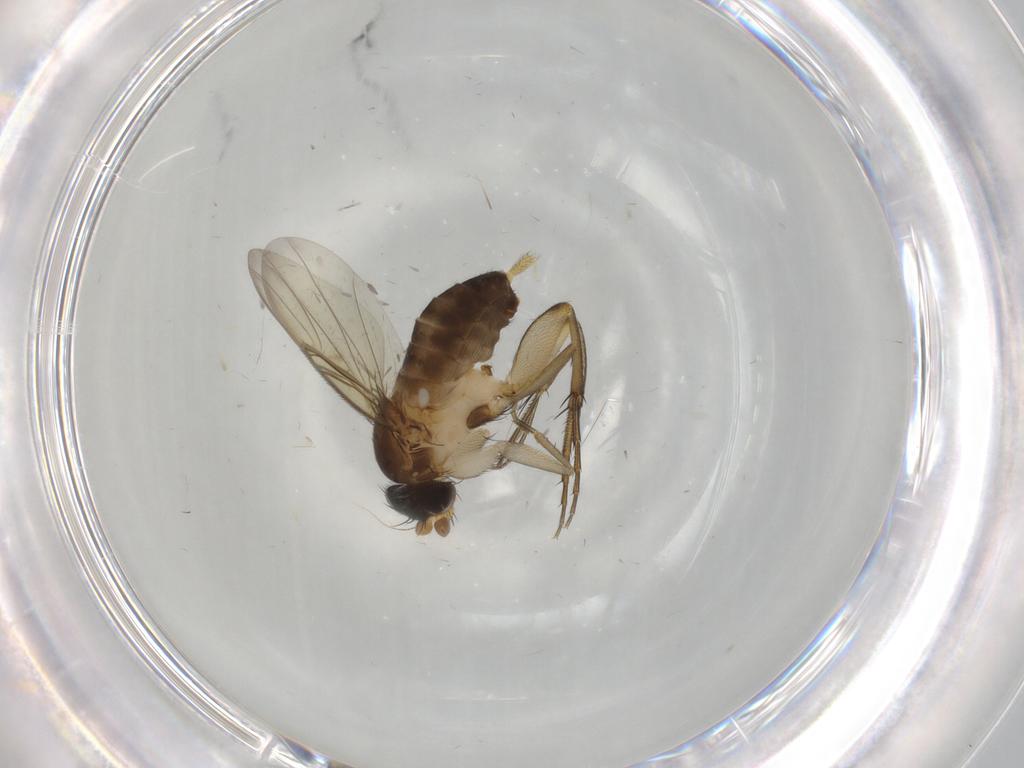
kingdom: Animalia
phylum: Arthropoda
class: Insecta
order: Diptera
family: Phoridae
